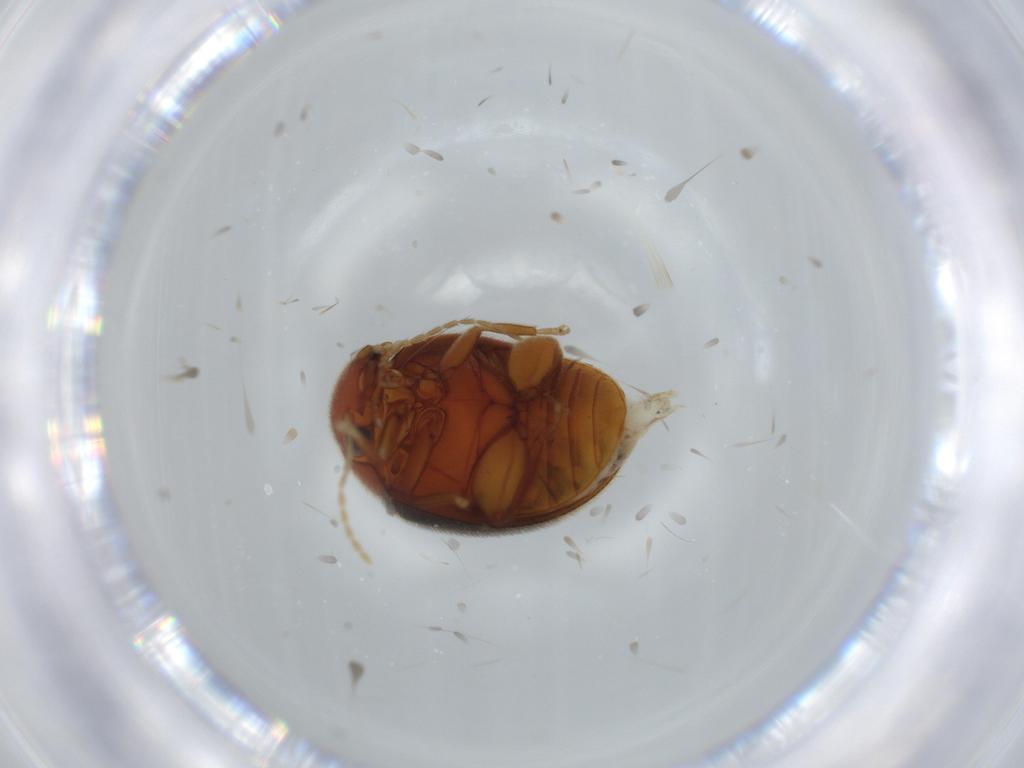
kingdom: Animalia
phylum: Arthropoda
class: Insecta
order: Coleoptera
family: Scirtidae
